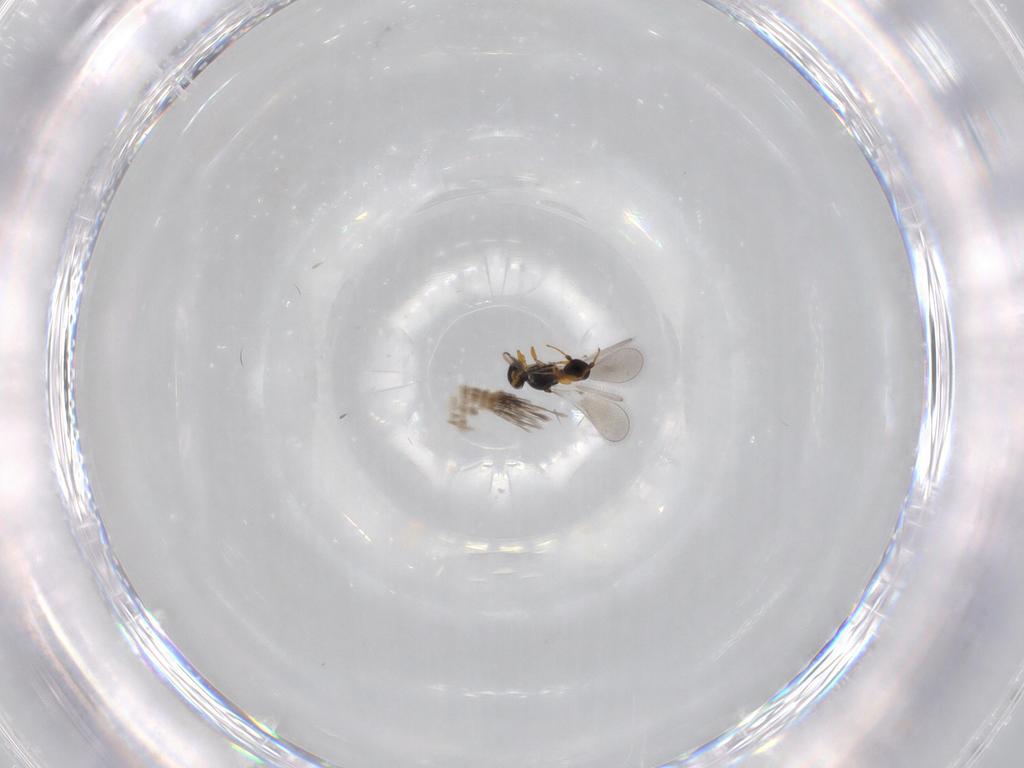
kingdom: Animalia
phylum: Arthropoda
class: Insecta
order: Hymenoptera
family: Platygastridae
